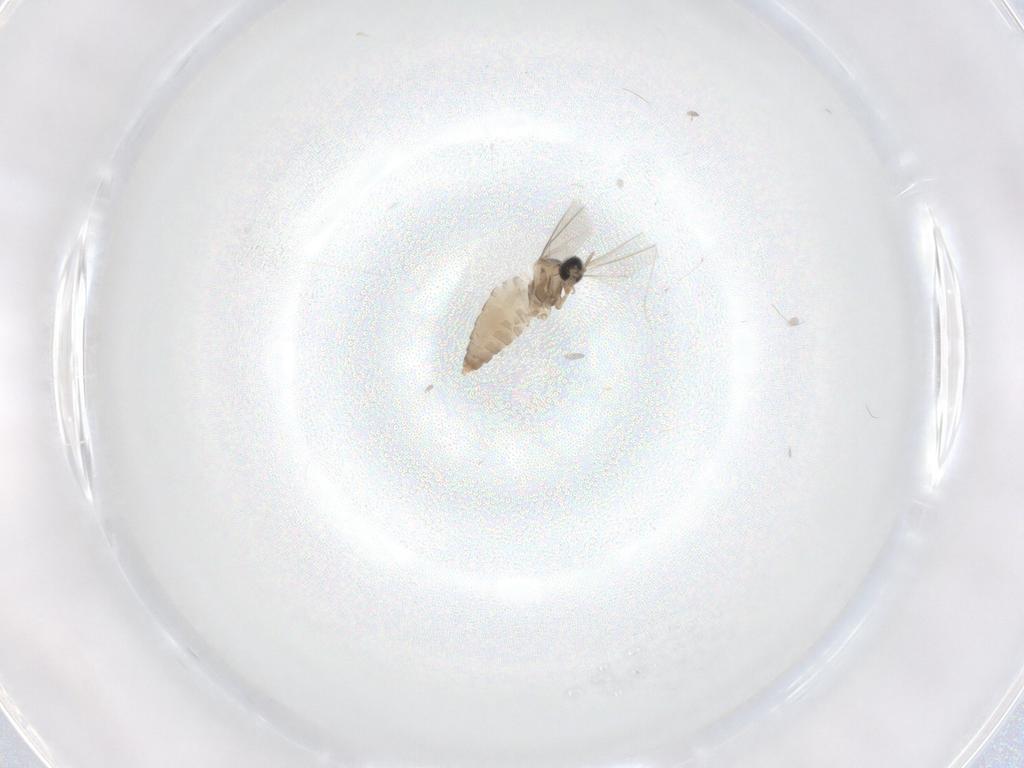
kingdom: Animalia
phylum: Arthropoda
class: Insecta
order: Diptera
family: Cecidomyiidae
